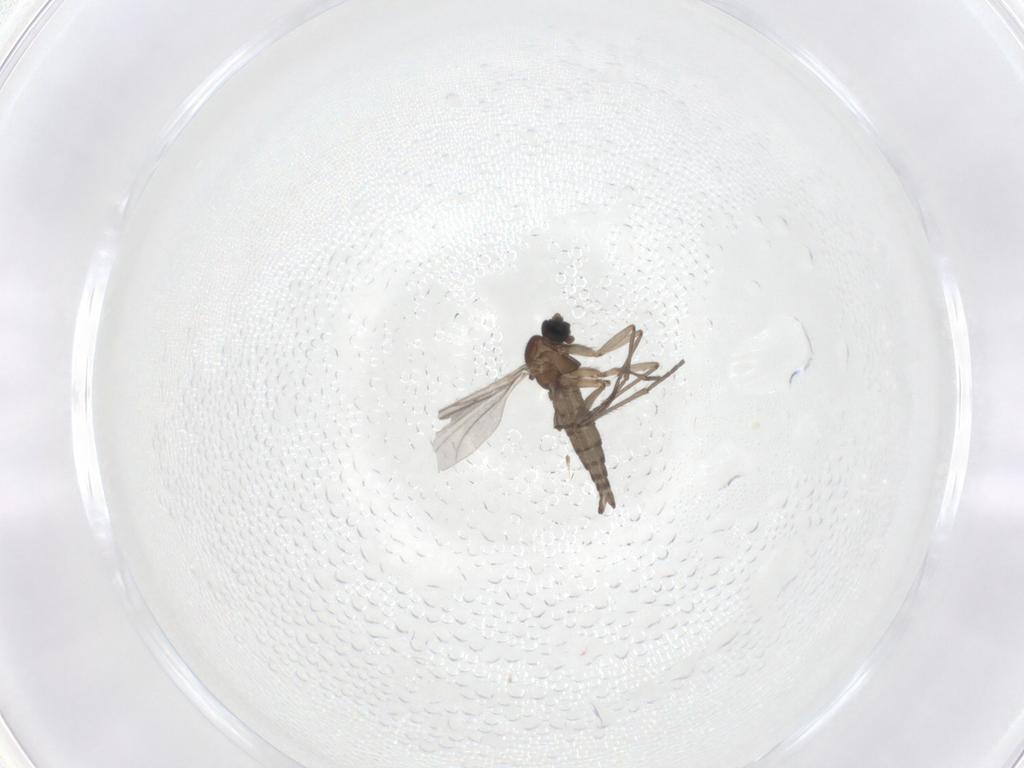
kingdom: Animalia
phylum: Arthropoda
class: Insecta
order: Diptera
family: Sciaridae
